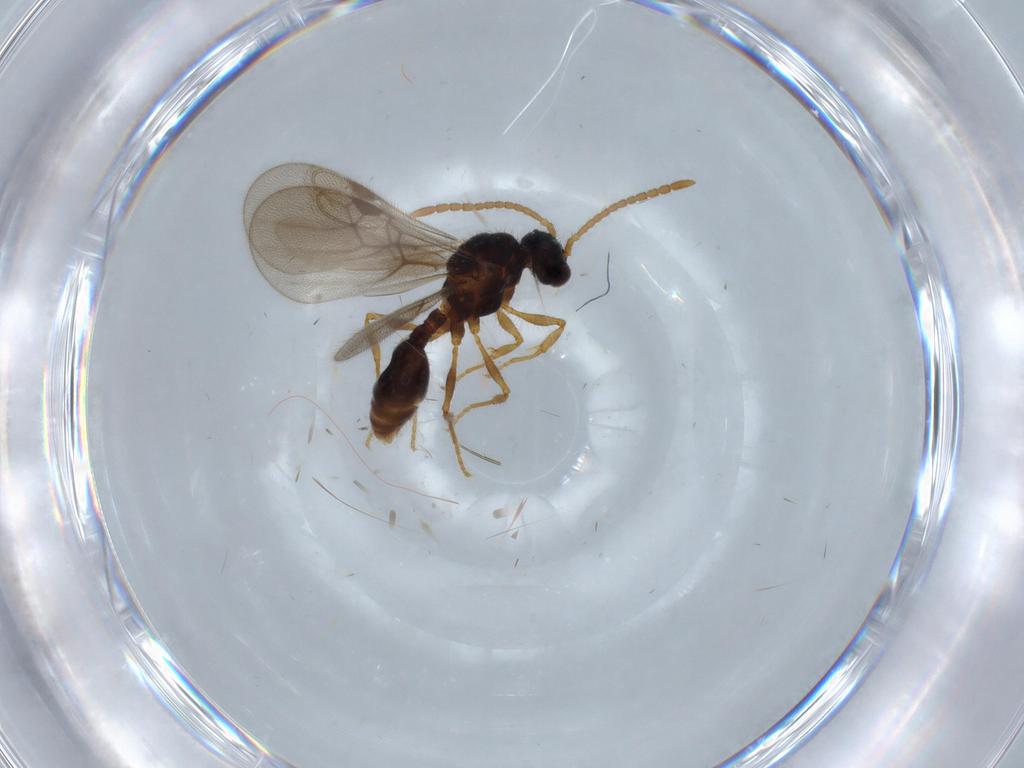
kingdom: Animalia
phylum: Arthropoda
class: Insecta
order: Hymenoptera
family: Formicidae
